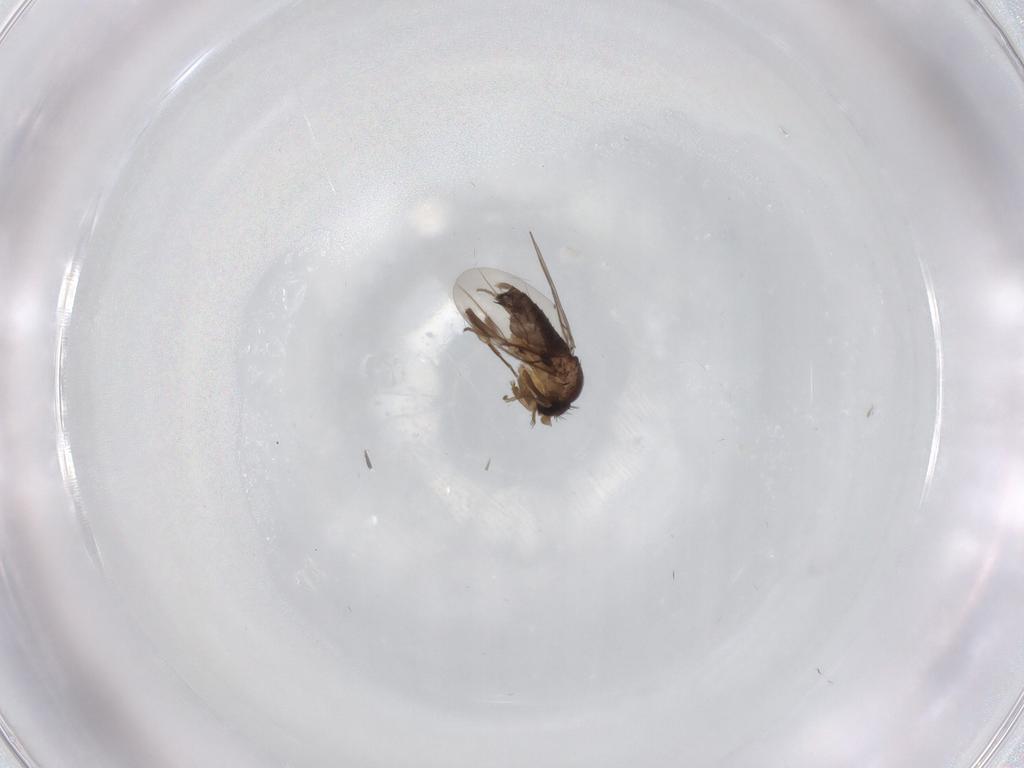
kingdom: Animalia
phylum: Arthropoda
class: Insecta
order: Diptera
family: Phoridae
